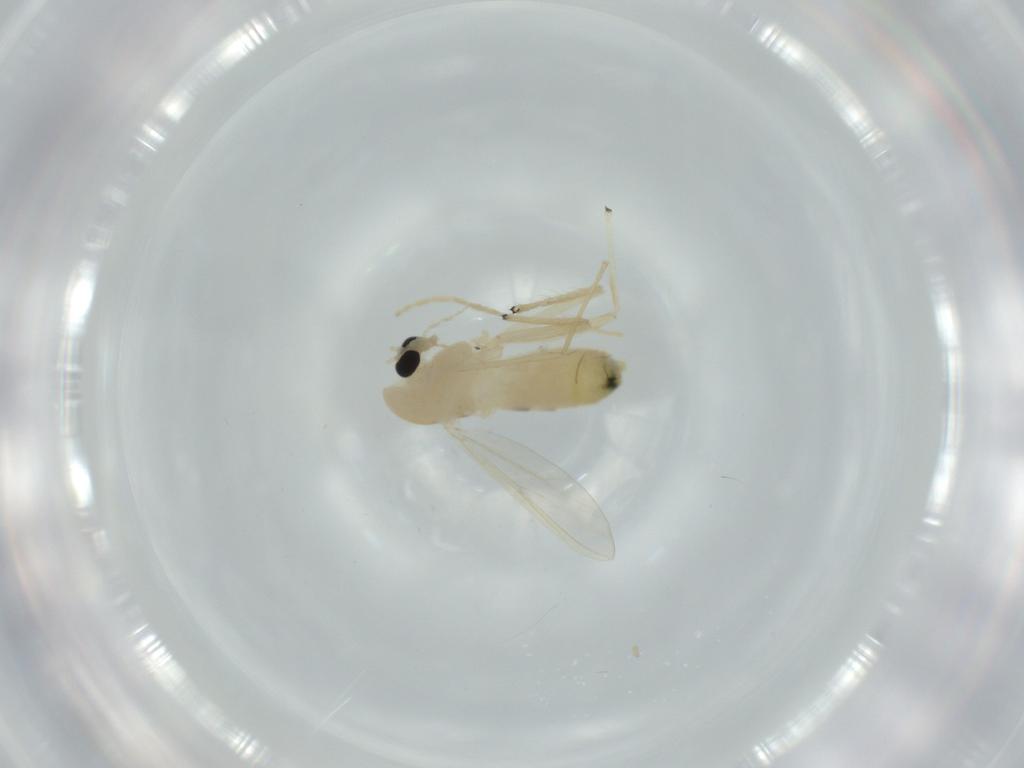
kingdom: Animalia
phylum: Arthropoda
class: Insecta
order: Diptera
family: Chironomidae
